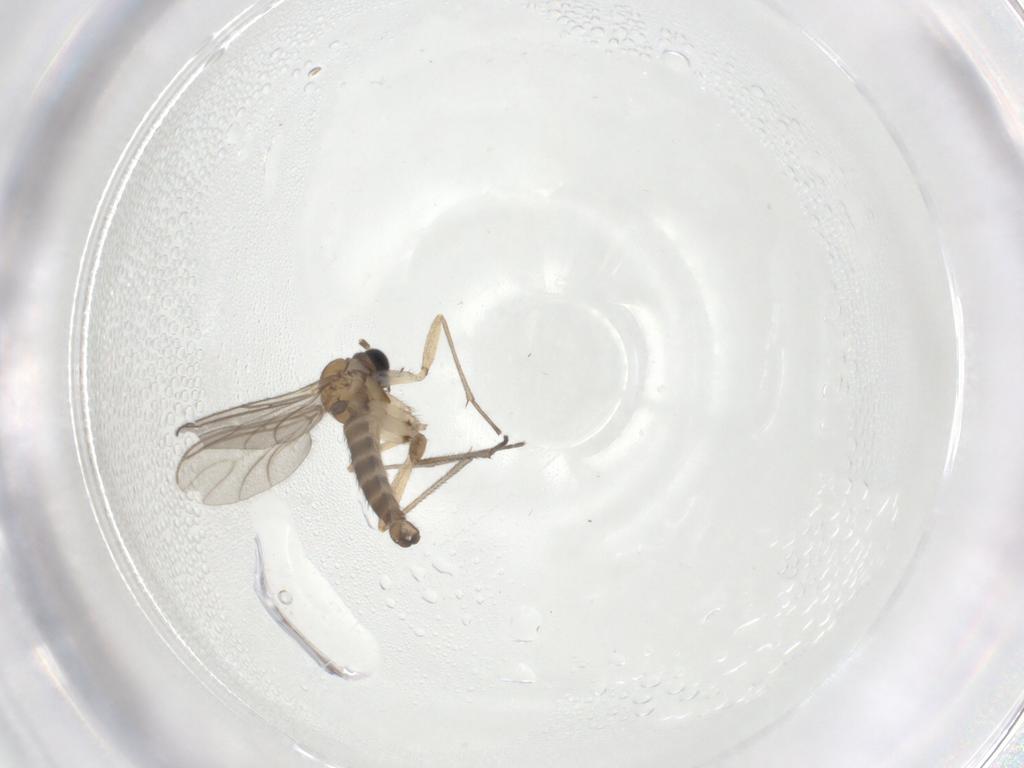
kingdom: Animalia
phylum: Arthropoda
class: Insecta
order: Diptera
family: Sciaridae
